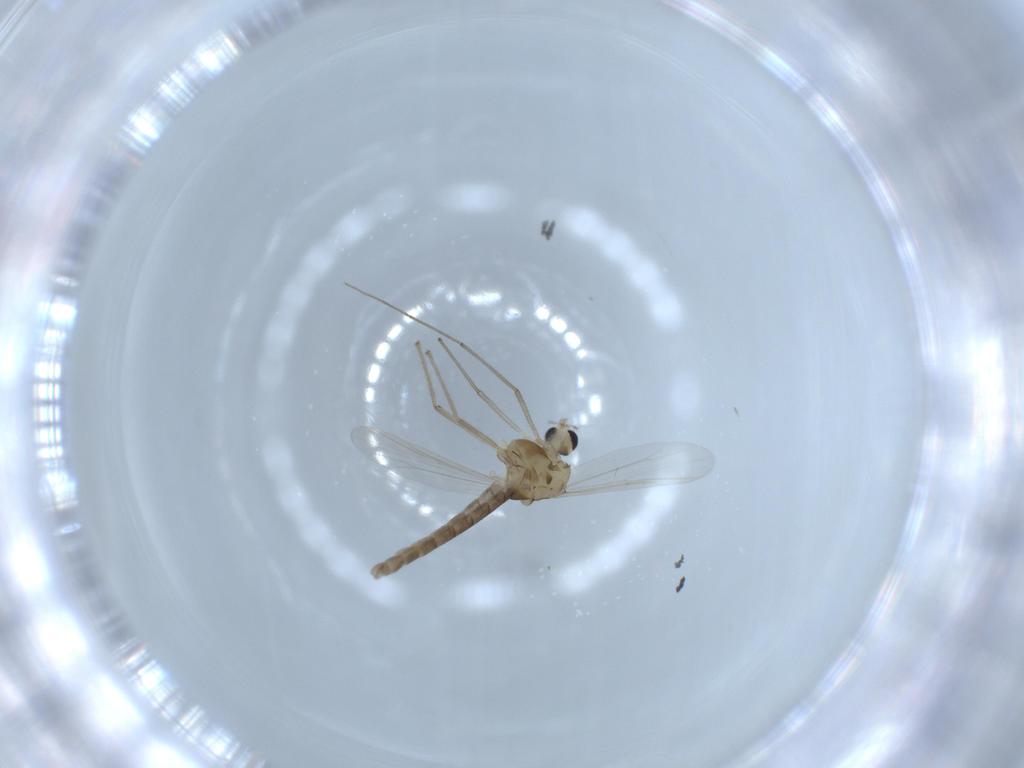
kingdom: Animalia
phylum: Arthropoda
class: Insecta
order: Diptera
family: Chironomidae
